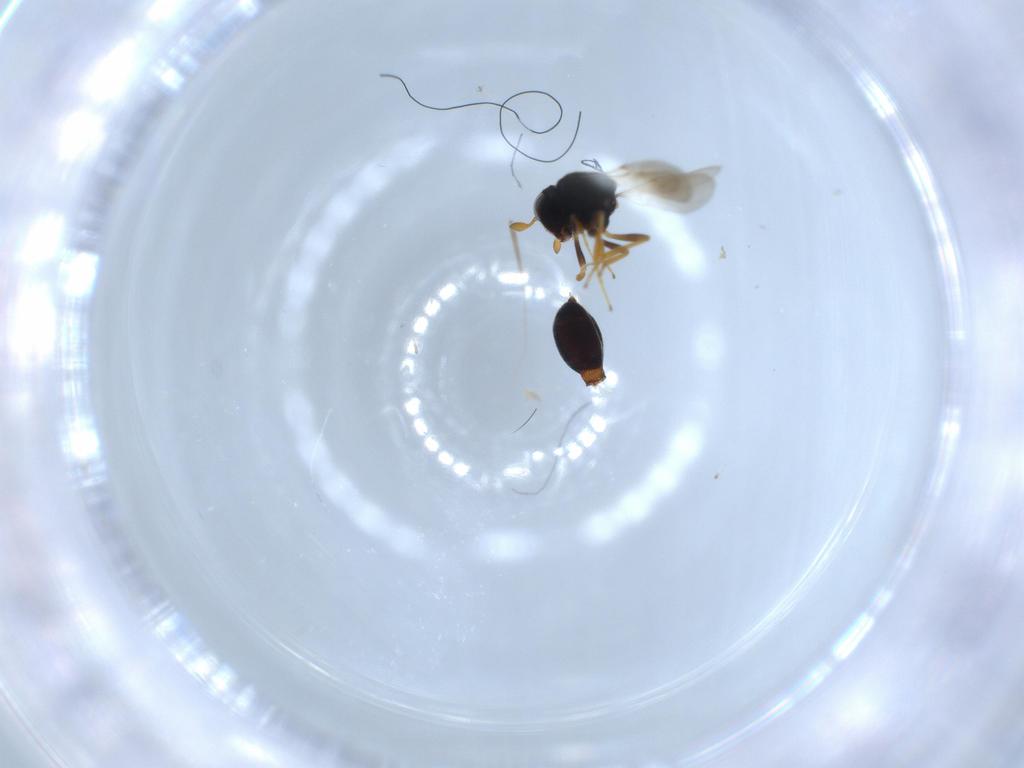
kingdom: Animalia
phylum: Arthropoda
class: Insecta
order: Hymenoptera
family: Scelionidae
